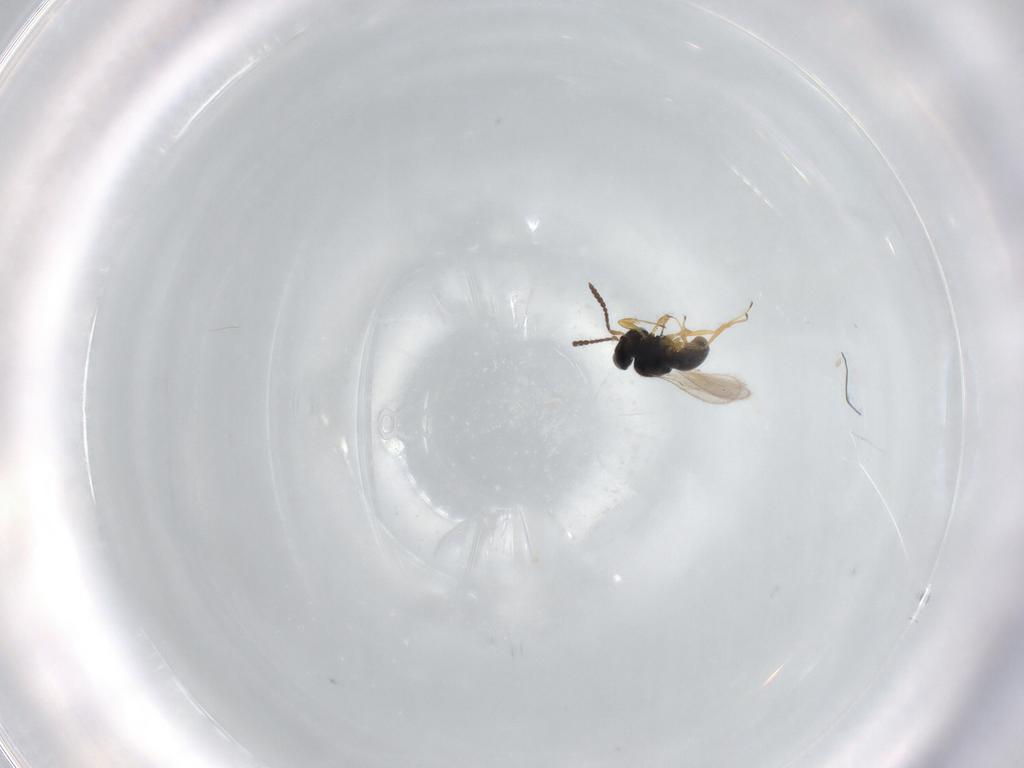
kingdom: Animalia
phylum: Arthropoda
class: Insecta
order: Hymenoptera
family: Scelionidae
